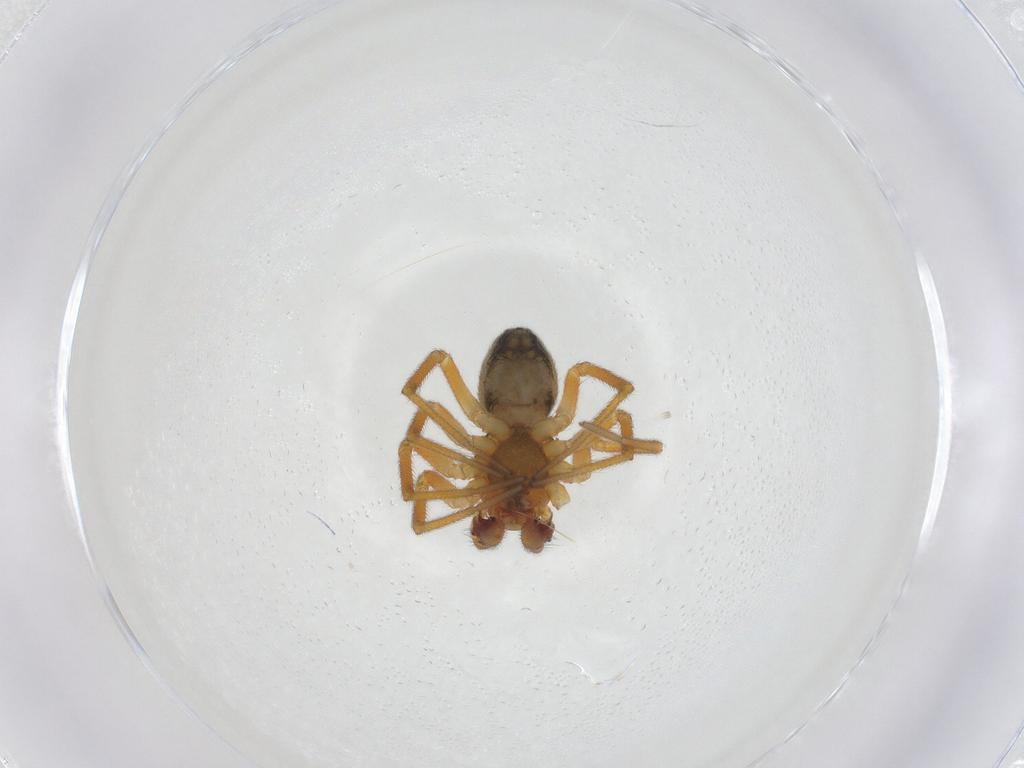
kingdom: Animalia
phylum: Arthropoda
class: Arachnida
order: Araneae
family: Linyphiidae
